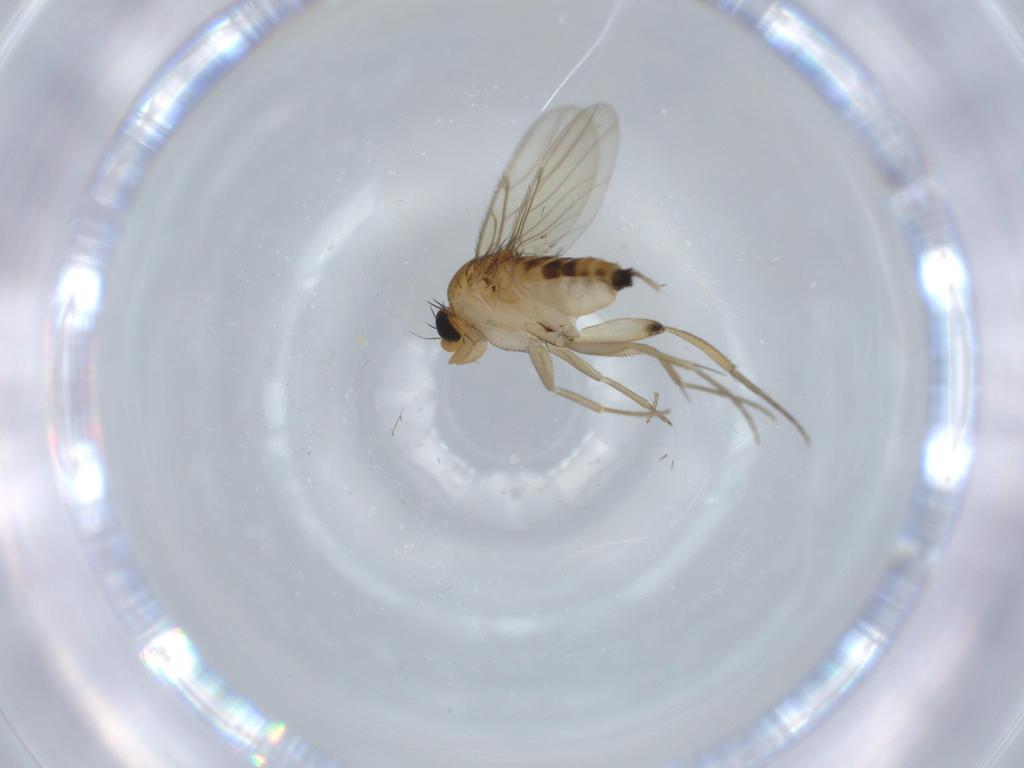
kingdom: Animalia
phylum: Arthropoda
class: Insecta
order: Diptera
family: Phoridae
